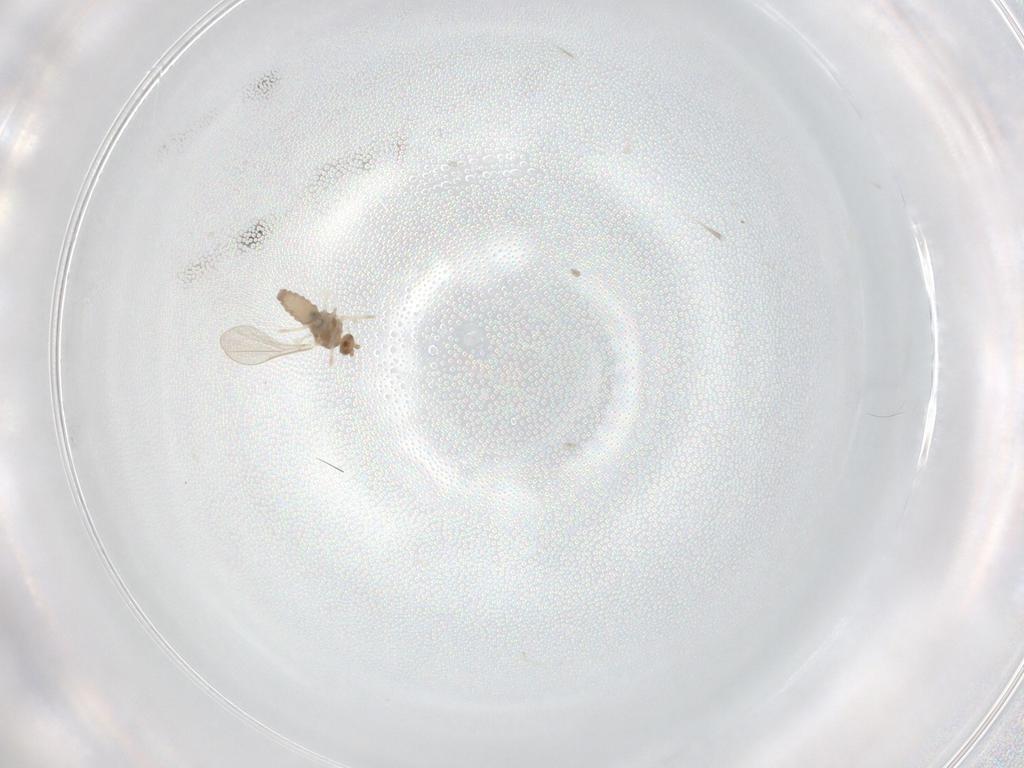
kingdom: Animalia
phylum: Arthropoda
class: Insecta
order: Diptera
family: Cecidomyiidae
